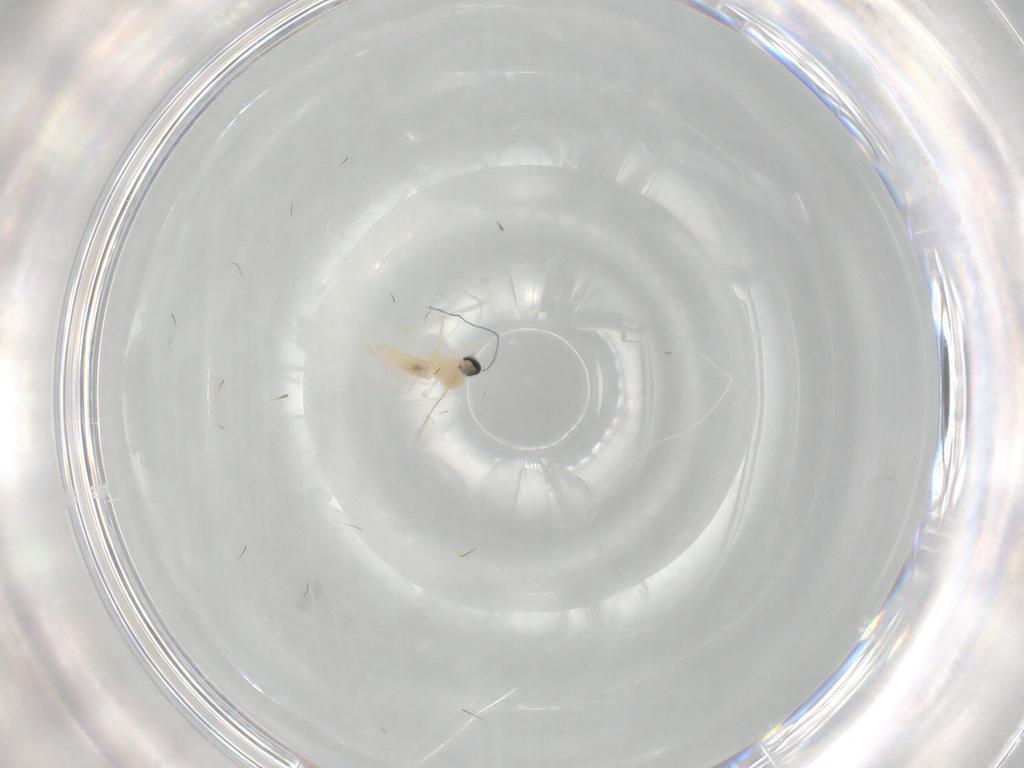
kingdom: Animalia
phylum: Arthropoda
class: Insecta
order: Diptera
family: Cecidomyiidae
